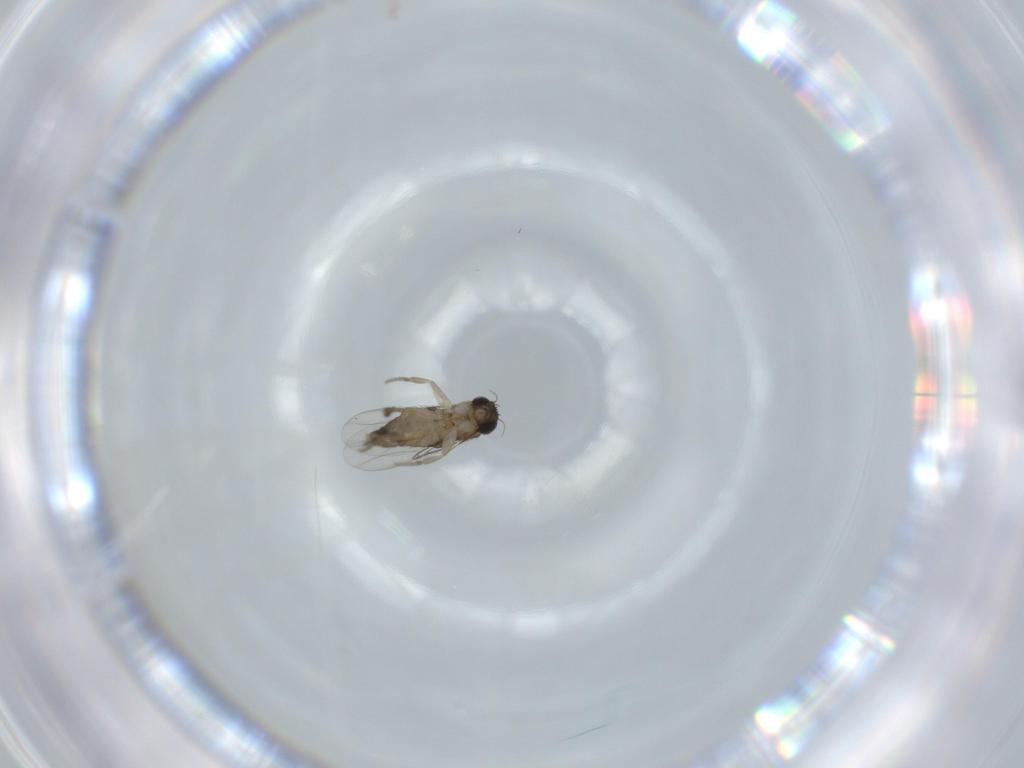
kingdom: Animalia
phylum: Arthropoda
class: Insecta
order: Diptera
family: Phoridae
